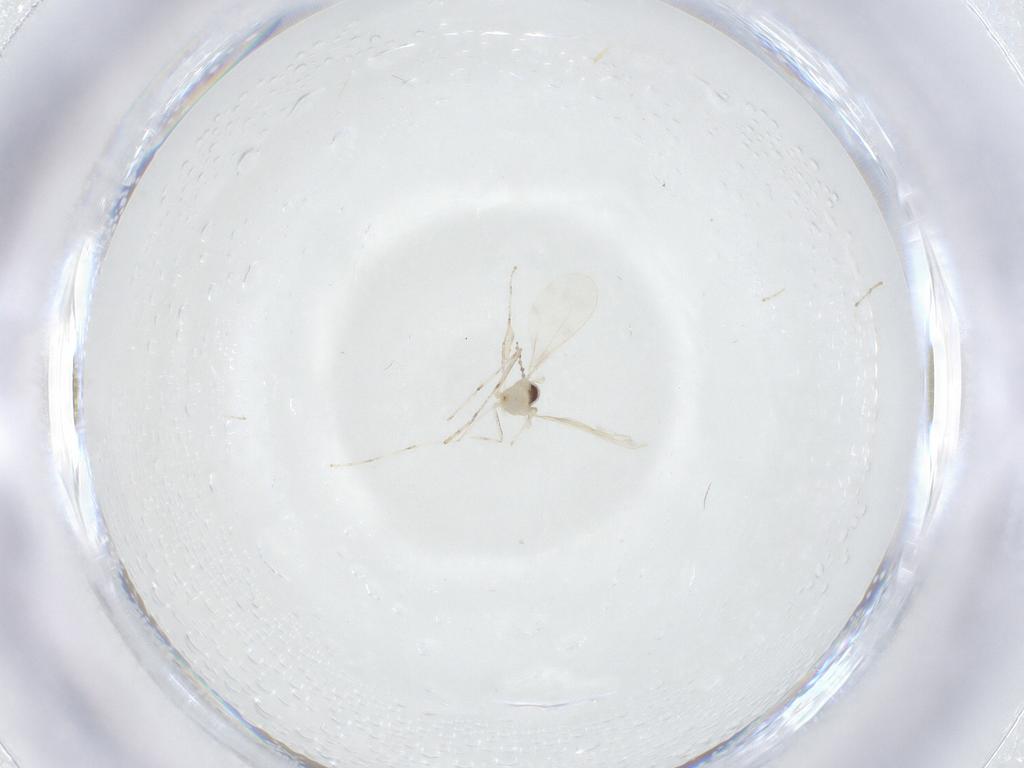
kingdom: Animalia
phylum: Arthropoda
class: Insecta
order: Diptera
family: Chironomidae
